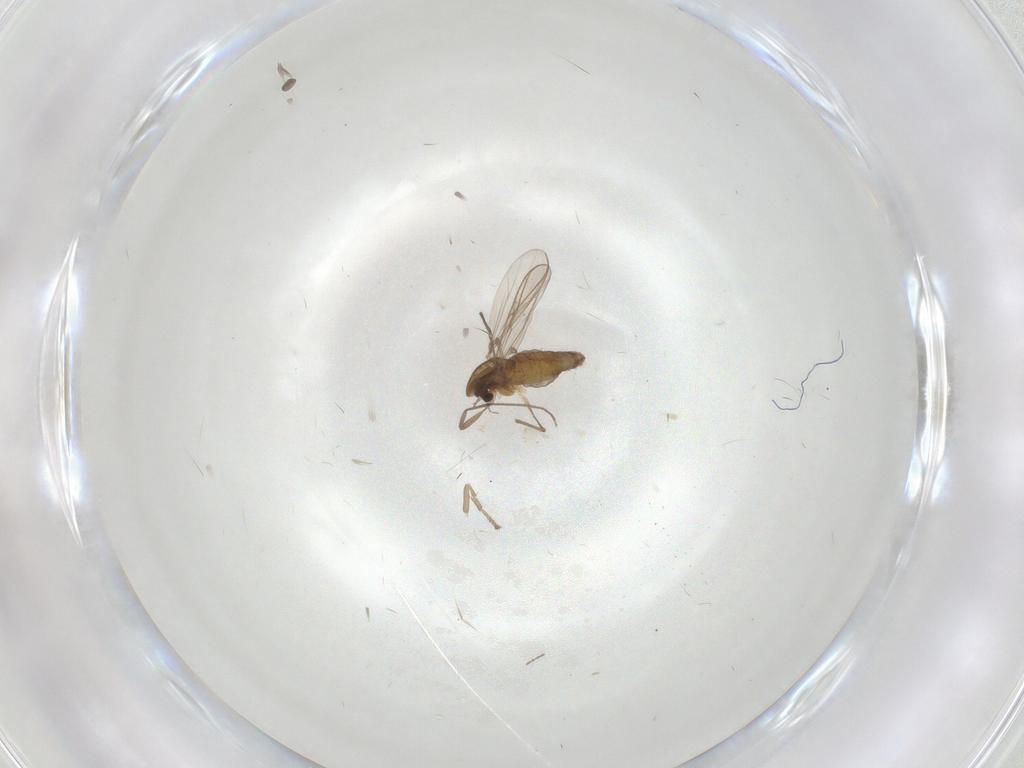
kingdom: Animalia
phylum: Arthropoda
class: Insecta
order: Diptera
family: Chironomidae
